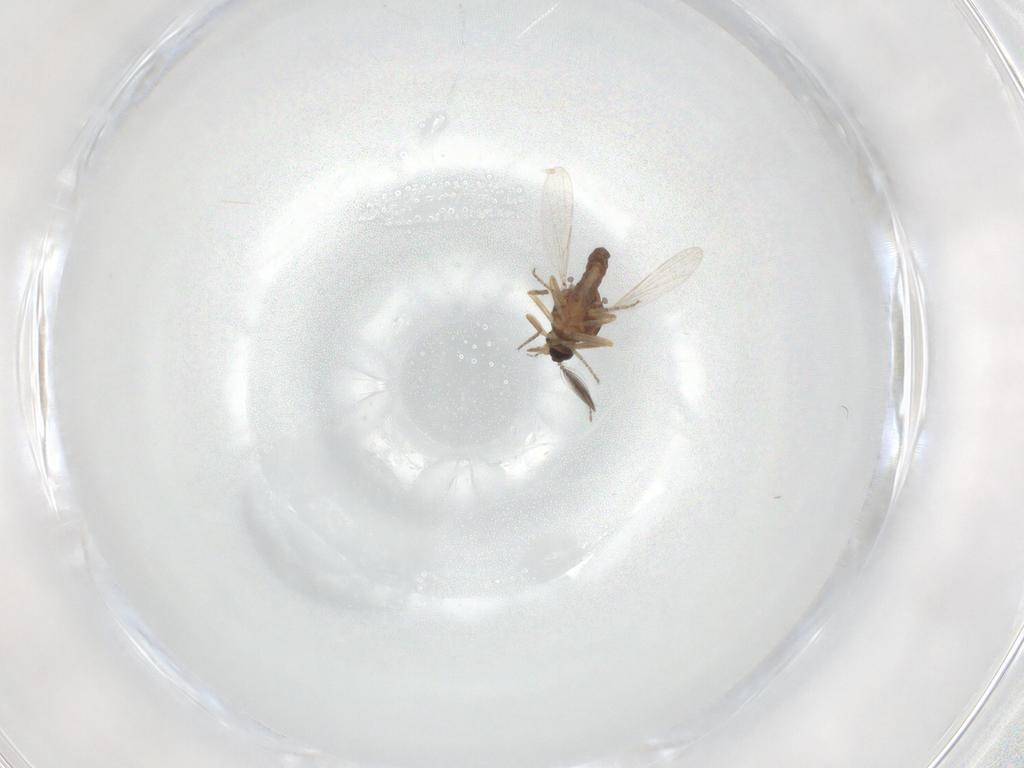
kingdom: Animalia
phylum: Arthropoda
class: Insecta
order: Diptera
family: Ceratopogonidae
